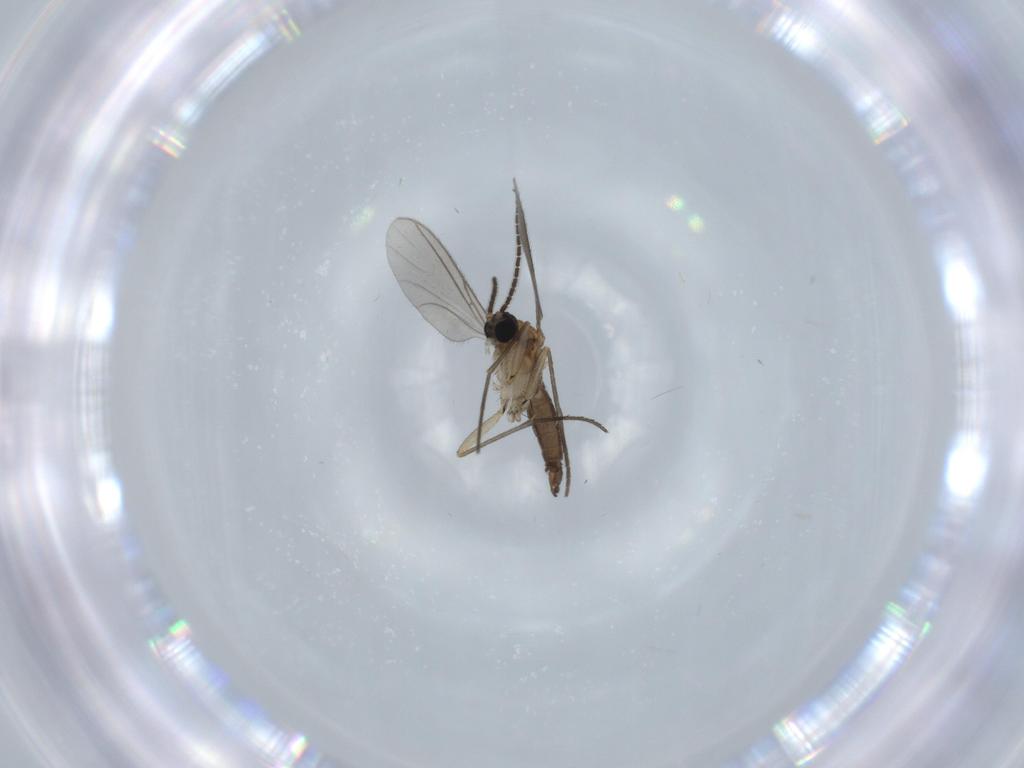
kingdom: Animalia
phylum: Arthropoda
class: Insecta
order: Diptera
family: Sciaridae
